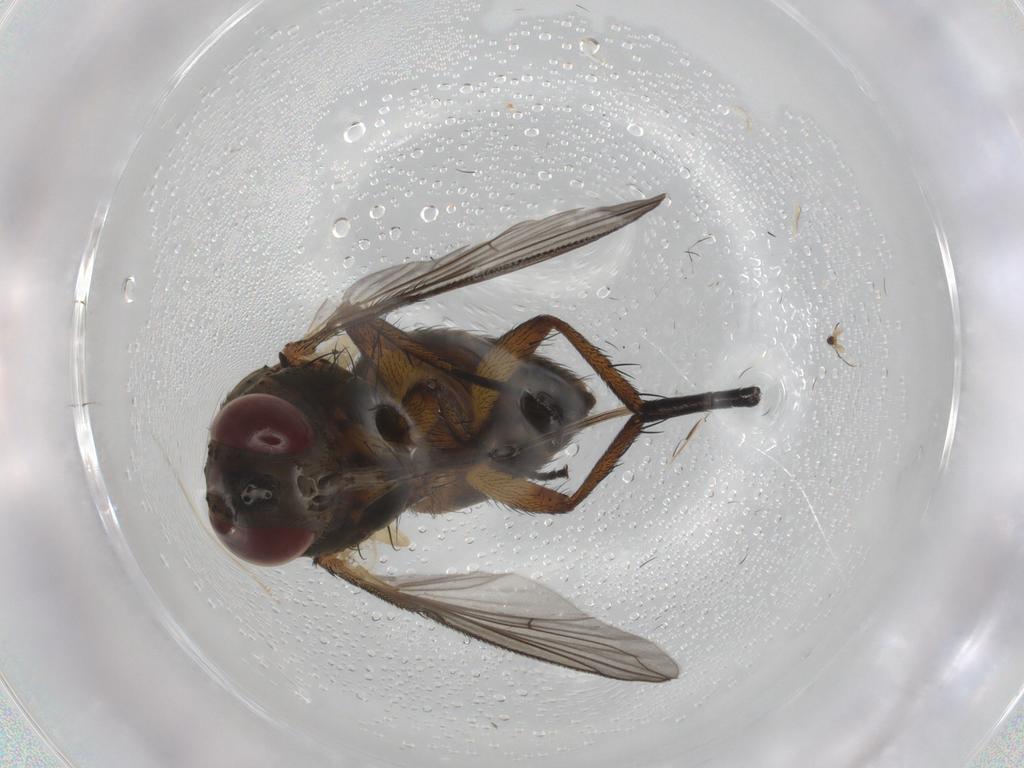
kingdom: Animalia
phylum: Arthropoda
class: Insecta
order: Diptera
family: Tachinidae
